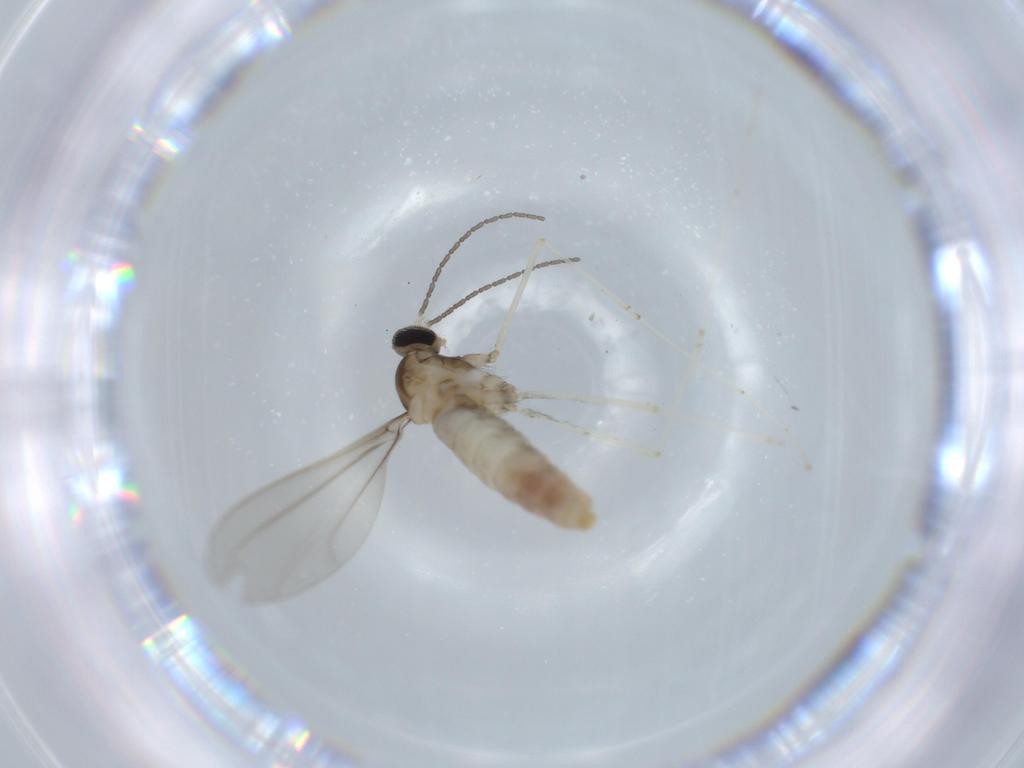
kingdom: Animalia
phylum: Arthropoda
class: Insecta
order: Diptera
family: Cecidomyiidae
